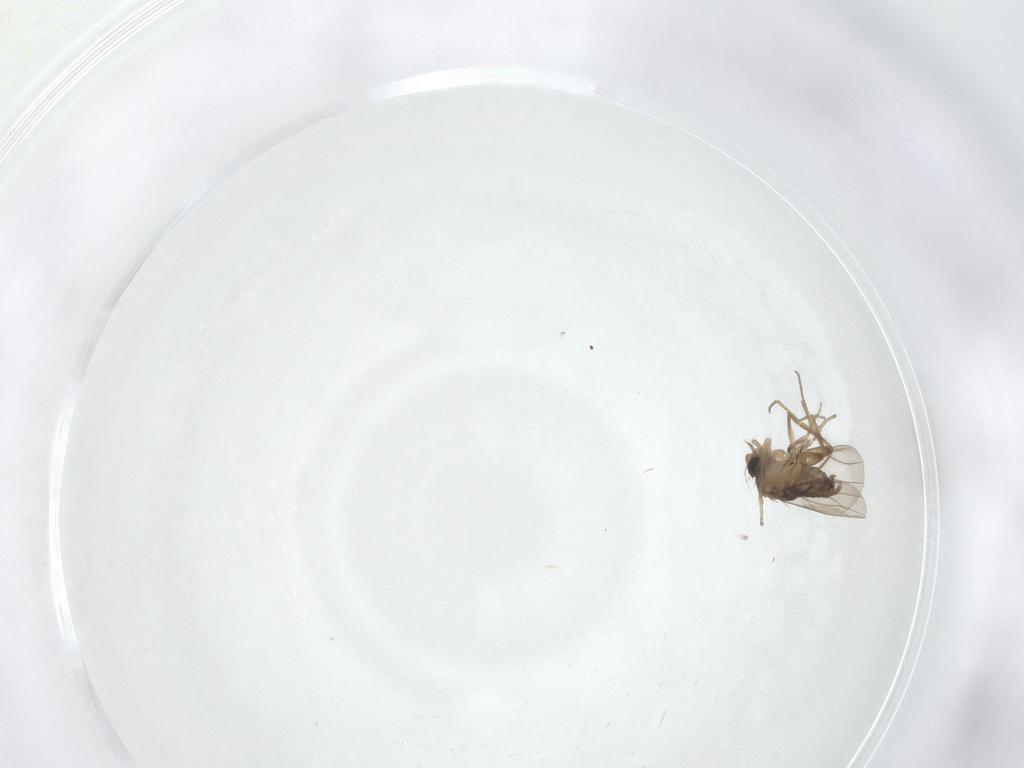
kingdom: Animalia
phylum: Arthropoda
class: Insecta
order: Diptera
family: Phoridae
